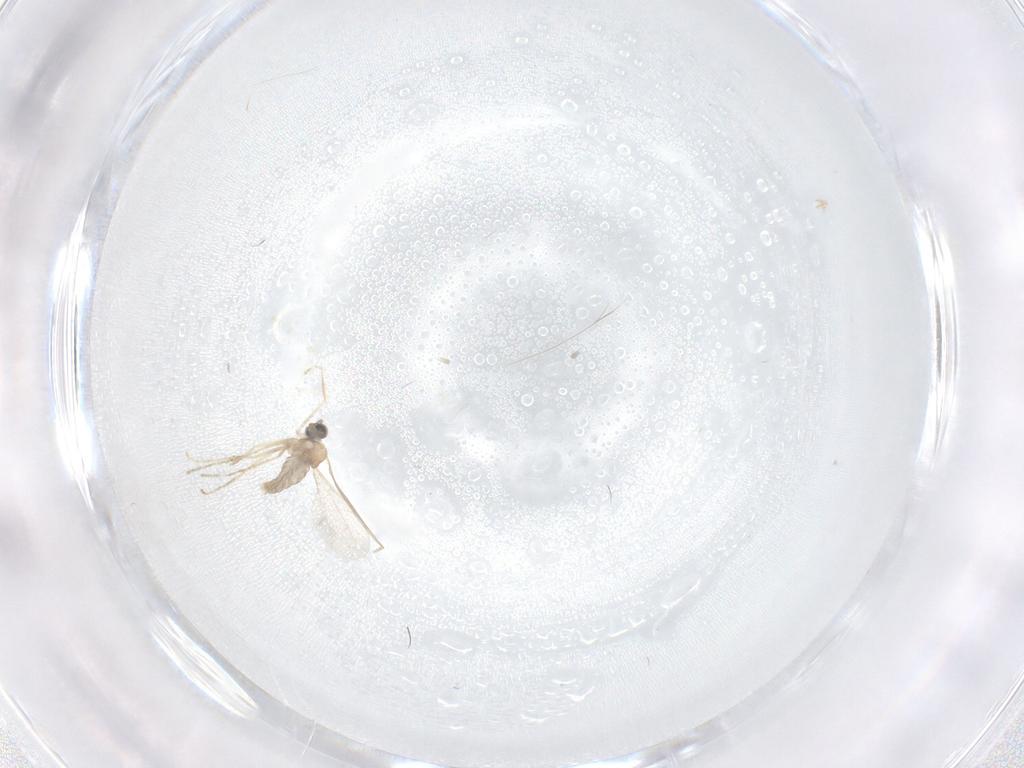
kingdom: Animalia
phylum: Arthropoda
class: Insecta
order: Diptera
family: Cecidomyiidae
